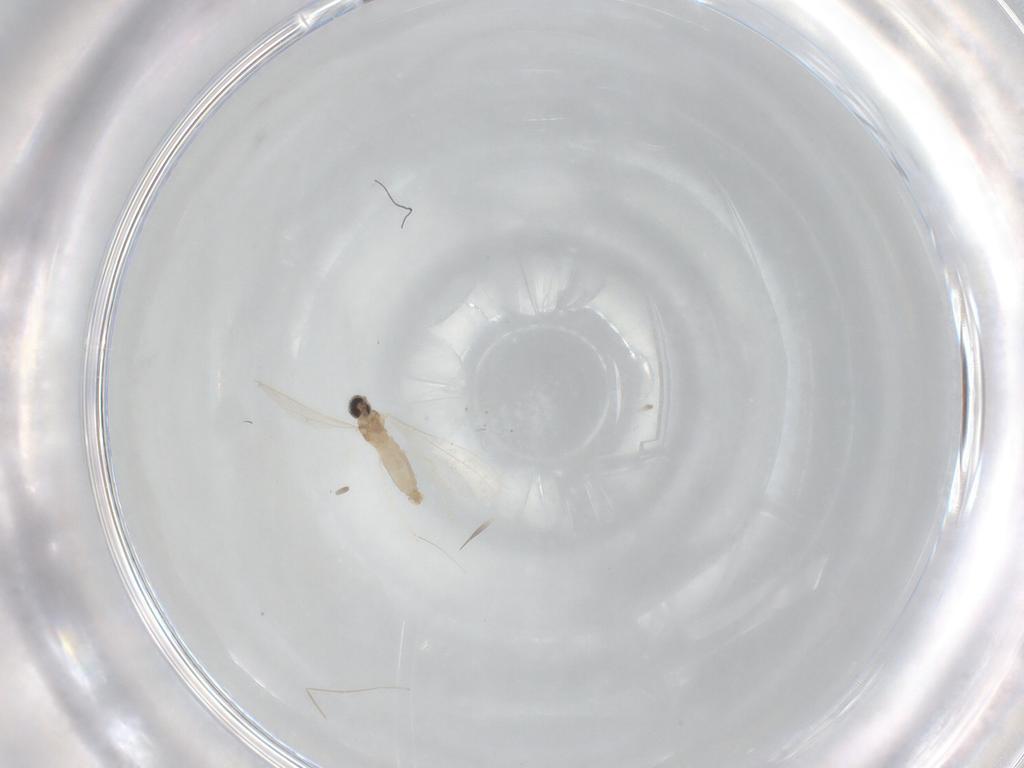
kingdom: Animalia
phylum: Arthropoda
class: Insecta
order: Diptera
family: Cecidomyiidae
